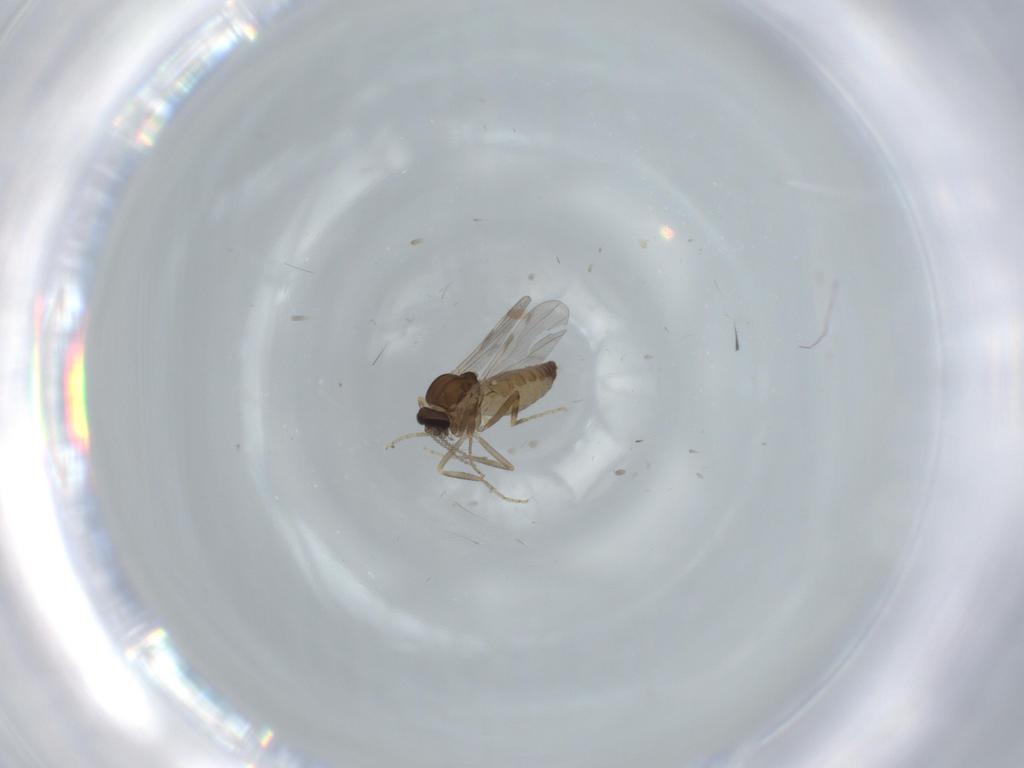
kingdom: Animalia
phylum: Arthropoda
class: Insecta
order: Diptera
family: Ceratopogonidae
